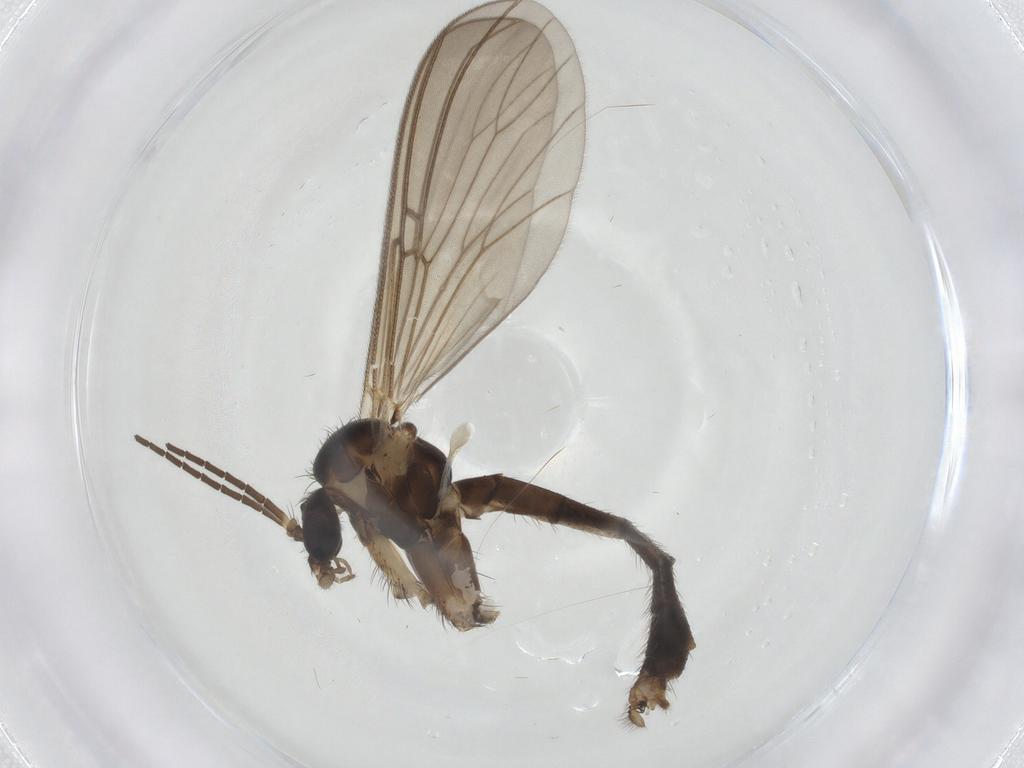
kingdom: Animalia
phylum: Arthropoda
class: Insecta
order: Diptera
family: Mycetophilidae
